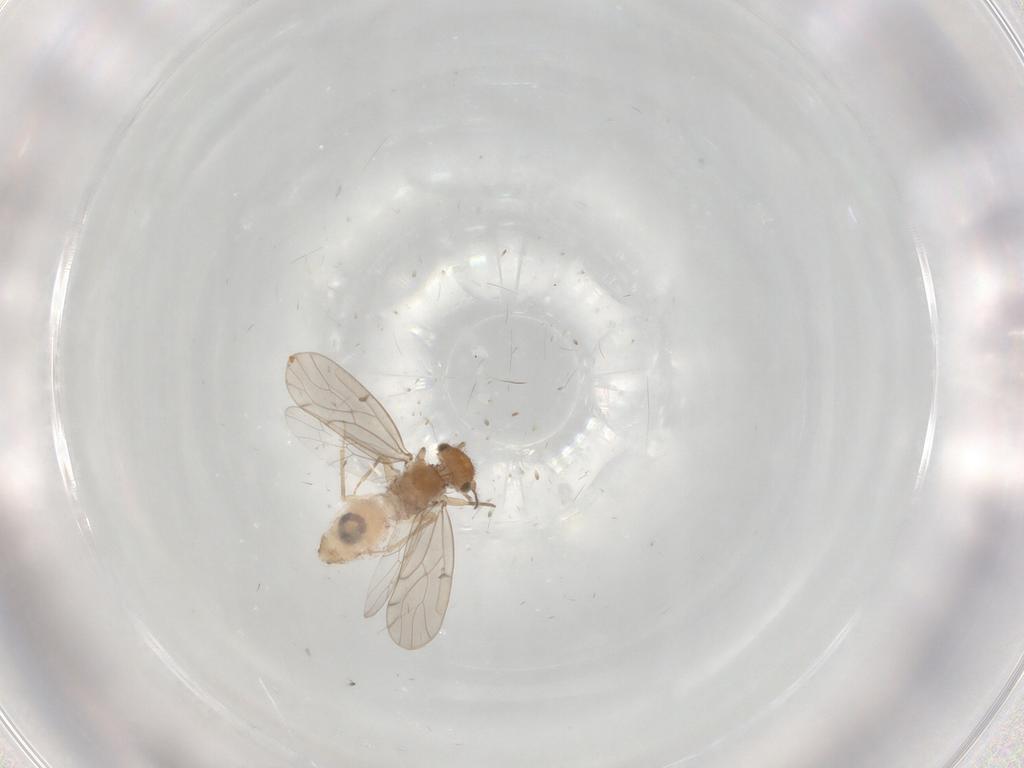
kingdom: Animalia
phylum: Arthropoda
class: Insecta
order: Psocodea
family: Ectopsocidae
